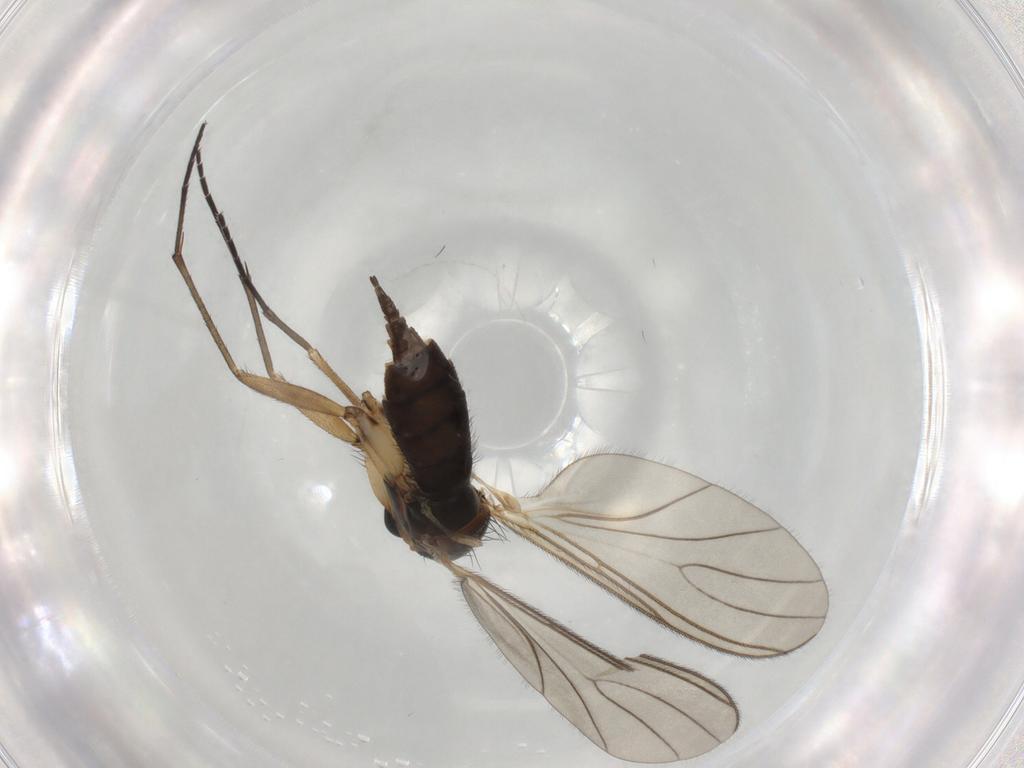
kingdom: Animalia
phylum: Arthropoda
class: Insecta
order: Diptera
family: Sciaridae
